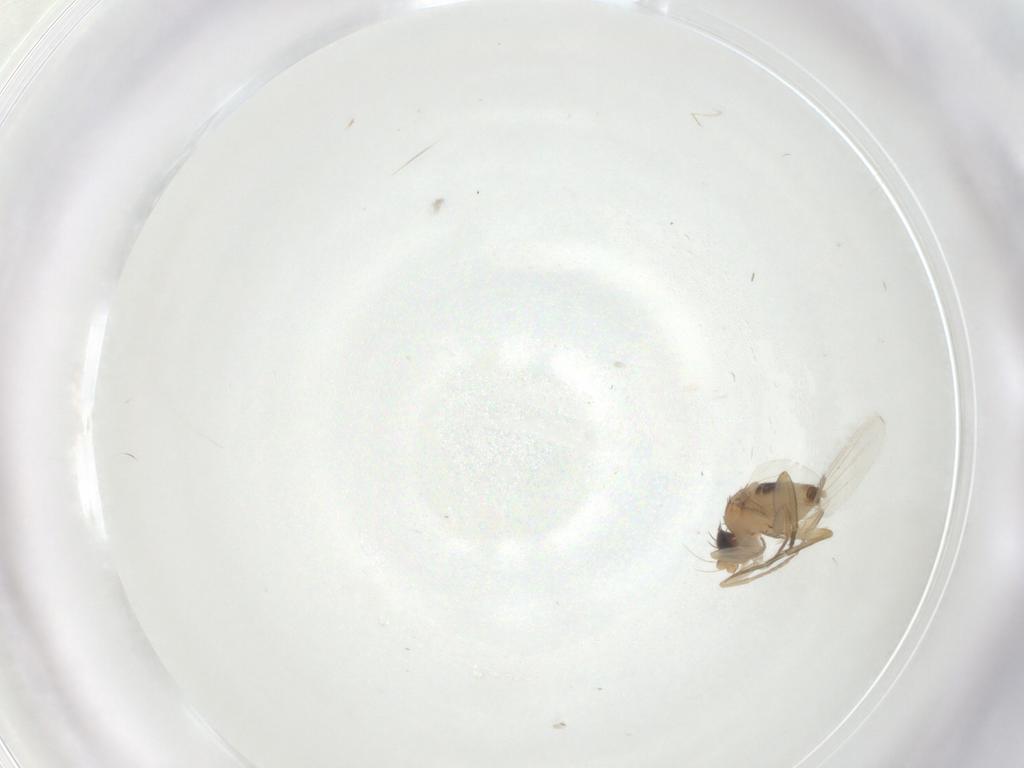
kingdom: Animalia
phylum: Arthropoda
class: Insecta
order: Diptera
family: Phoridae
